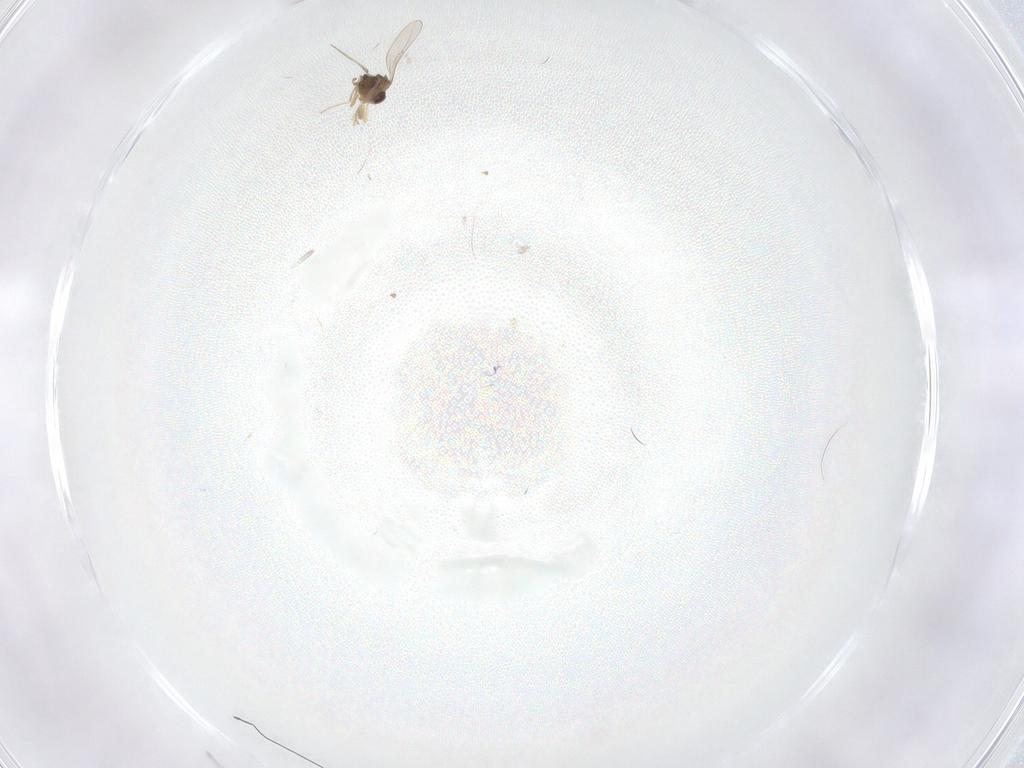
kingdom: Animalia
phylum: Arthropoda
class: Insecta
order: Diptera
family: Cecidomyiidae
